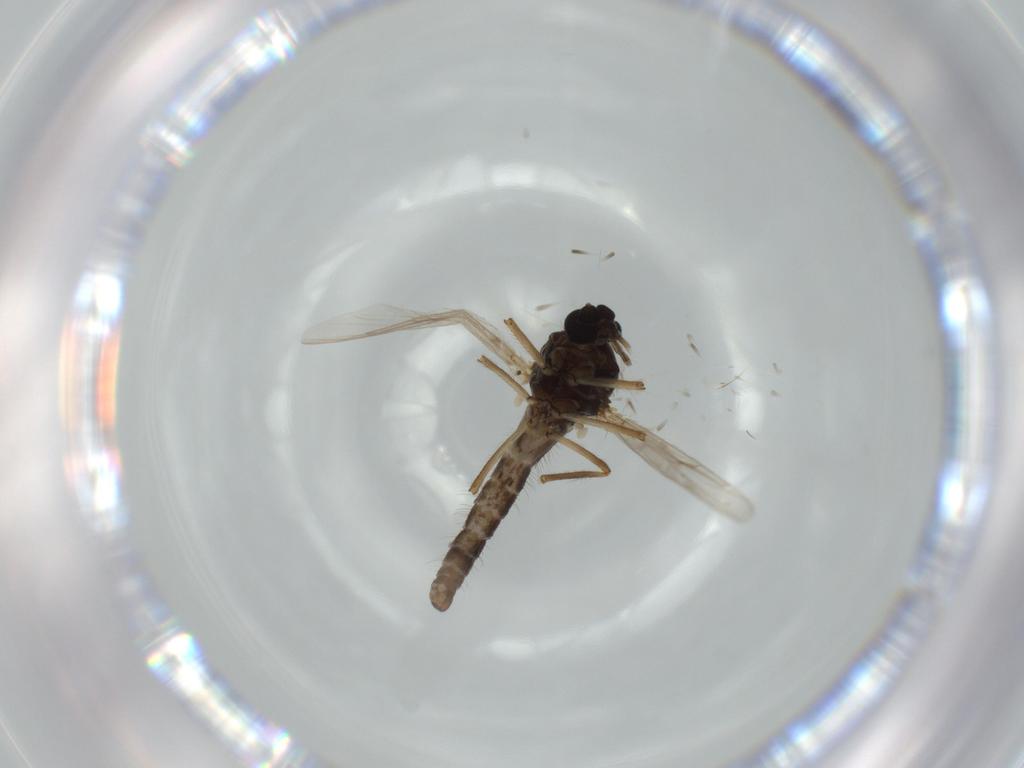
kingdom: Animalia
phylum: Arthropoda
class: Insecta
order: Diptera
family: Ceratopogonidae
